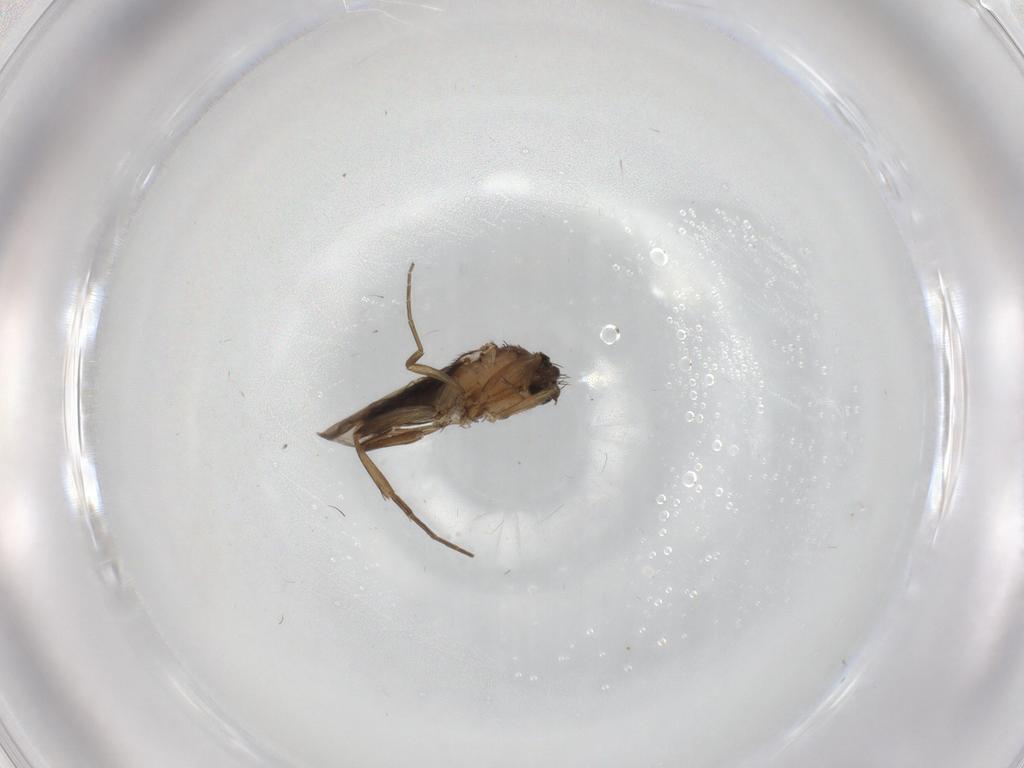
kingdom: Animalia
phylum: Arthropoda
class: Insecta
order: Diptera
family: Phoridae
